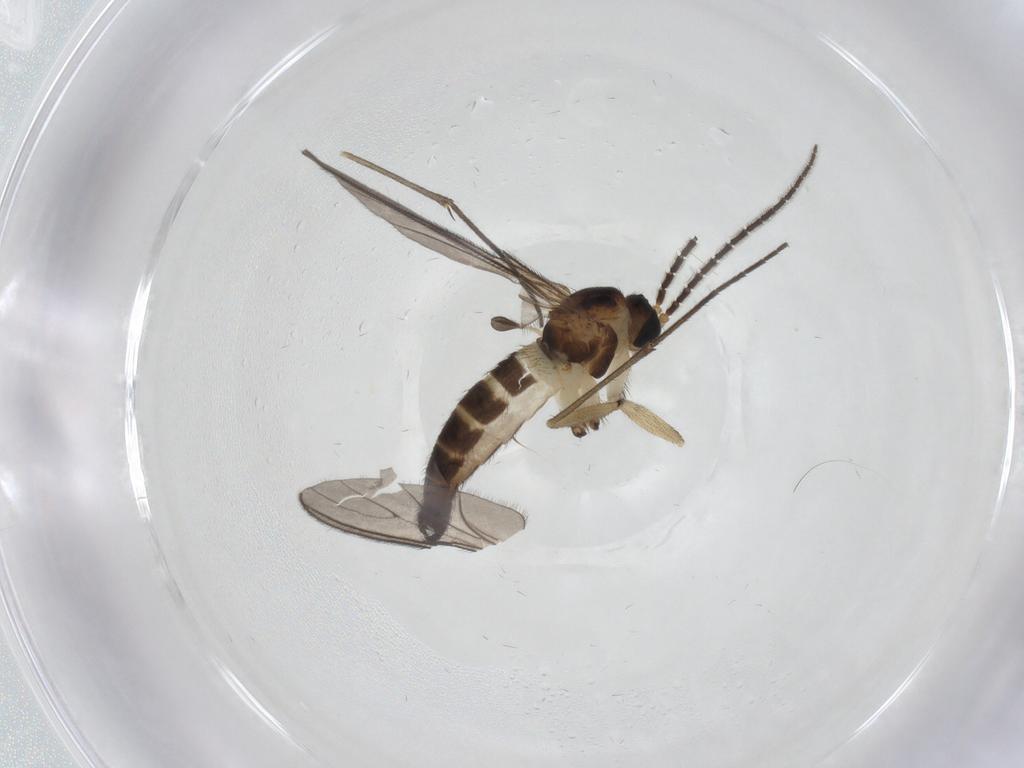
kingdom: Animalia
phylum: Arthropoda
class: Insecta
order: Diptera
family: Sciaridae
